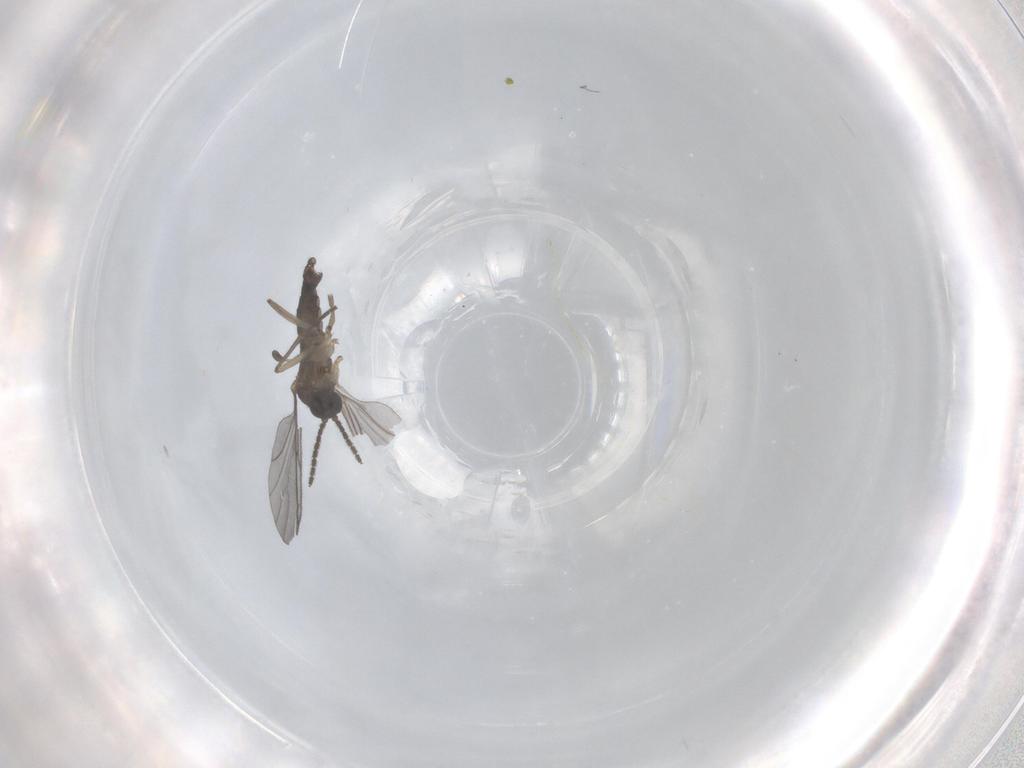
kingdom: Animalia
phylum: Arthropoda
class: Insecta
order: Diptera
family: Sciaridae
